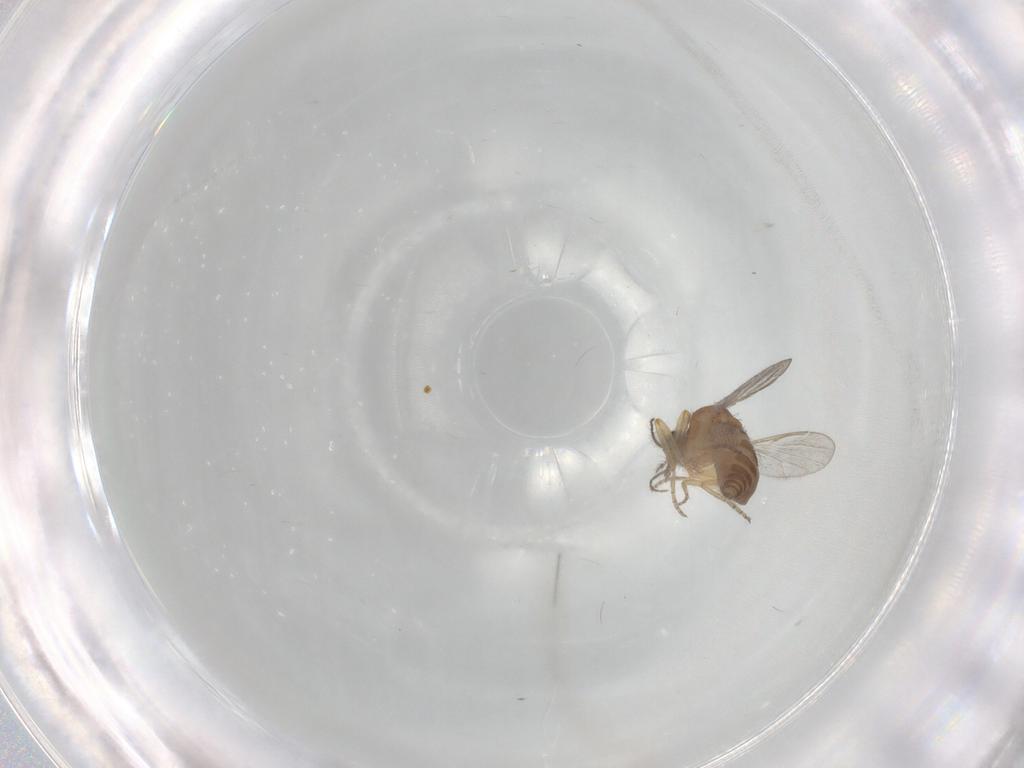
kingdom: Animalia
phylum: Arthropoda
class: Insecta
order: Diptera
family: Ceratopogonidae
